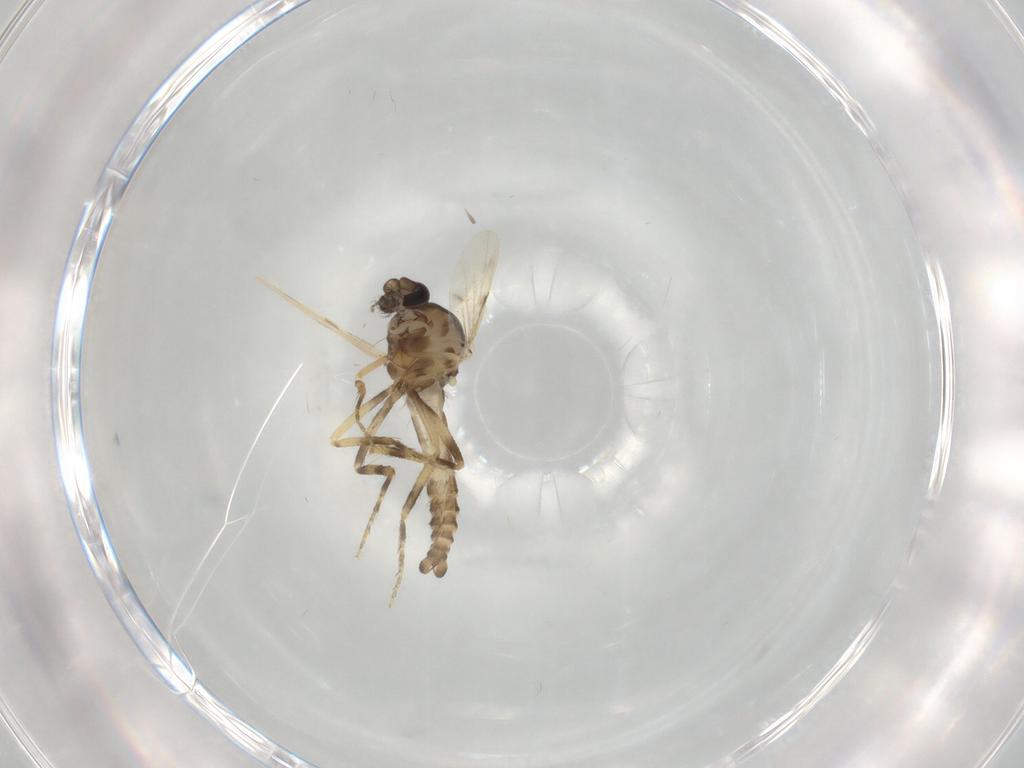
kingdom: Animalia
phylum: Arthropoda
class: Insecta
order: Diptera
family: Ceratopogonidae
